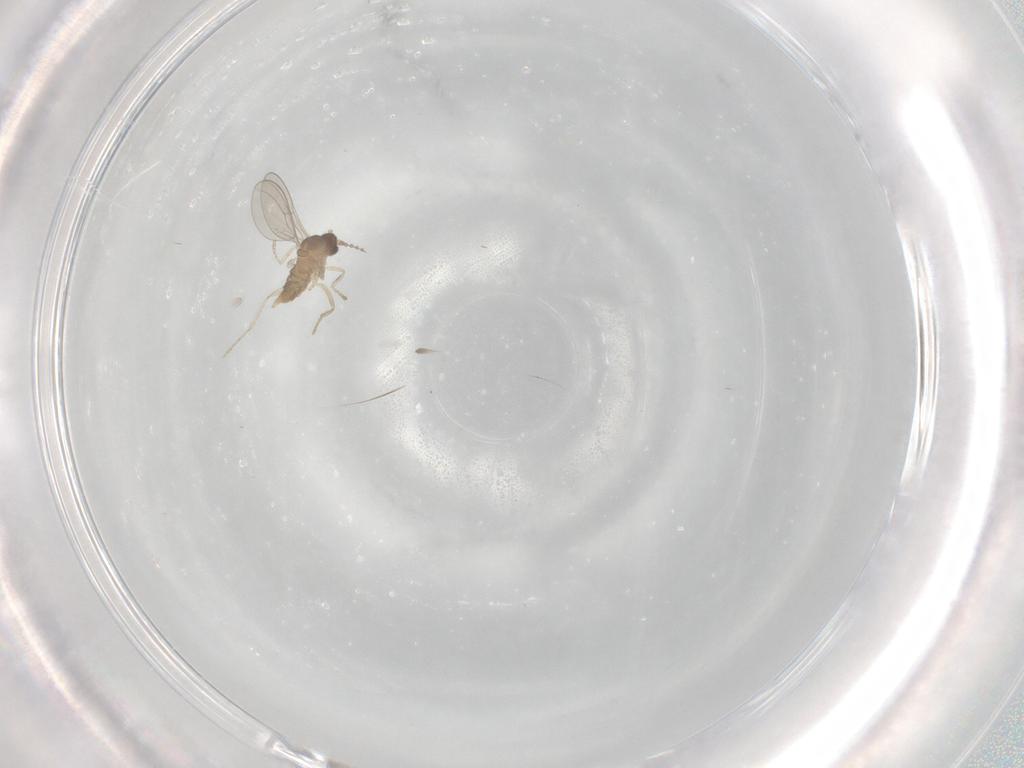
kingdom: Animalia
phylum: Arthropoda
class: Insecta
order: Diptera
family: Cecidomyiidae
